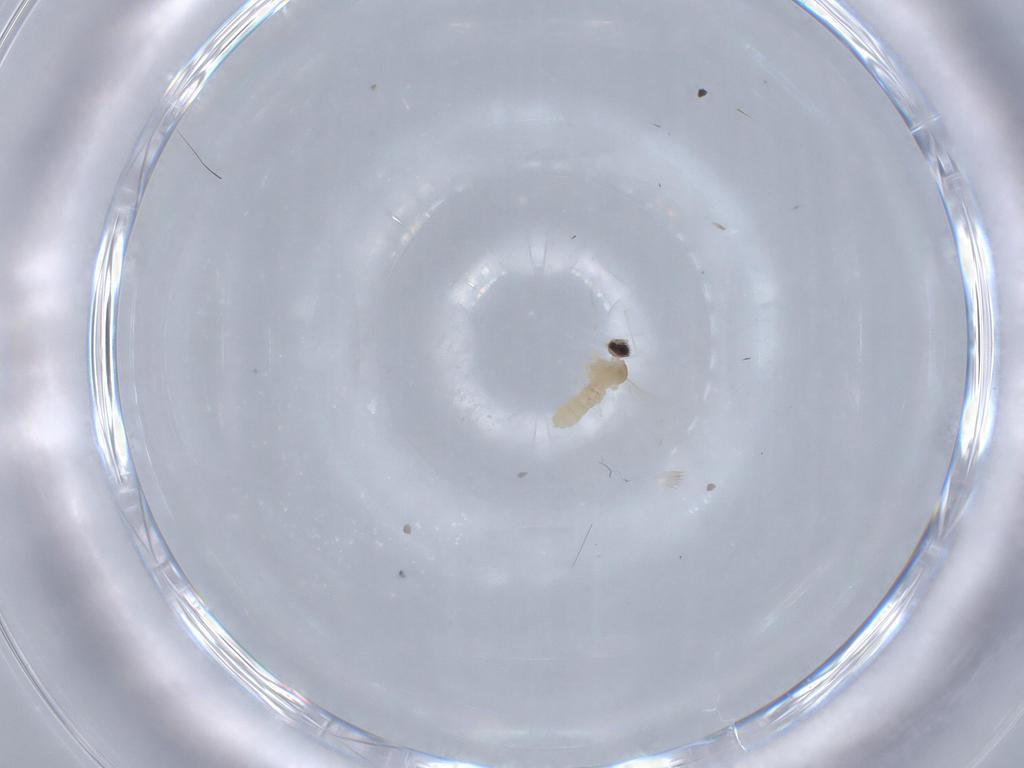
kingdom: Animalia
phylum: Arthropoda
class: Insecta
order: Diptera
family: Cecidomyiidae
